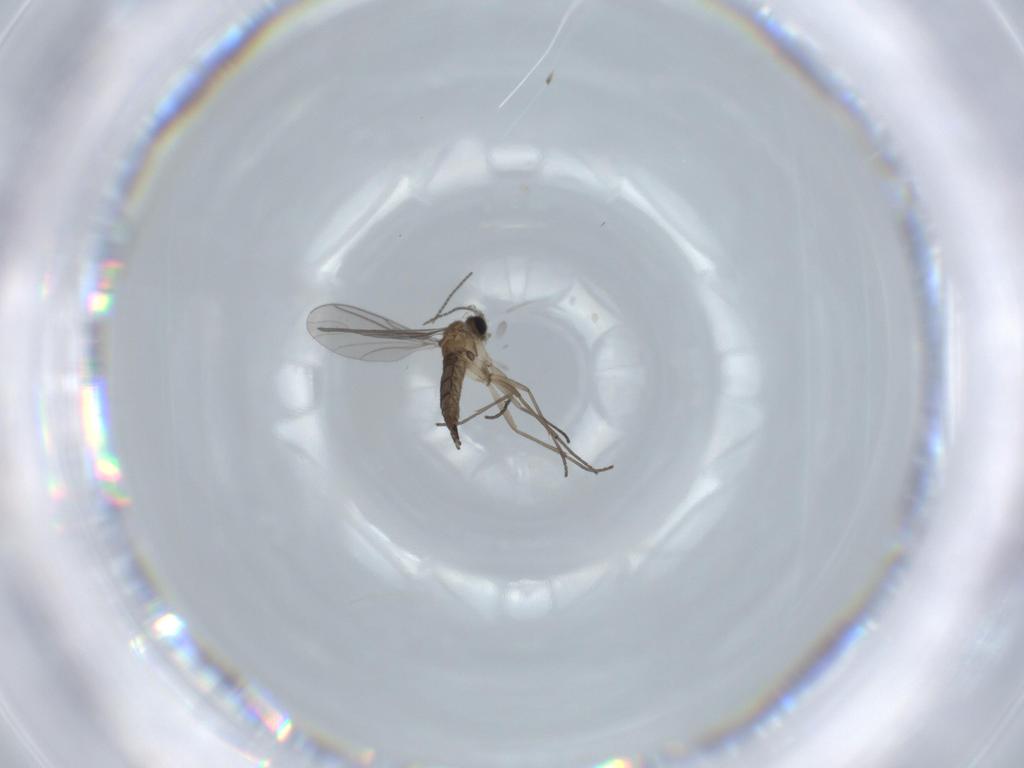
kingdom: Animalia
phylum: Arthropoda
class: Insecta
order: Diptera
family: Sciaridae
